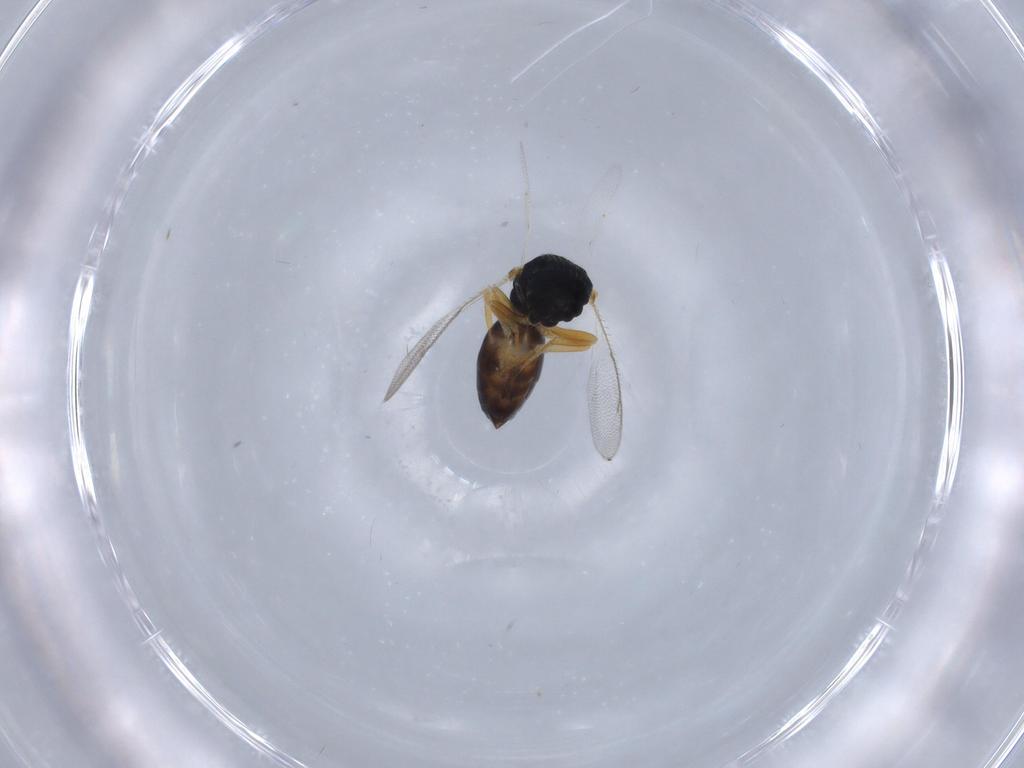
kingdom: Animalia
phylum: Arthropoda
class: Insecta
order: Hymenoptera
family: Pteromalidae
